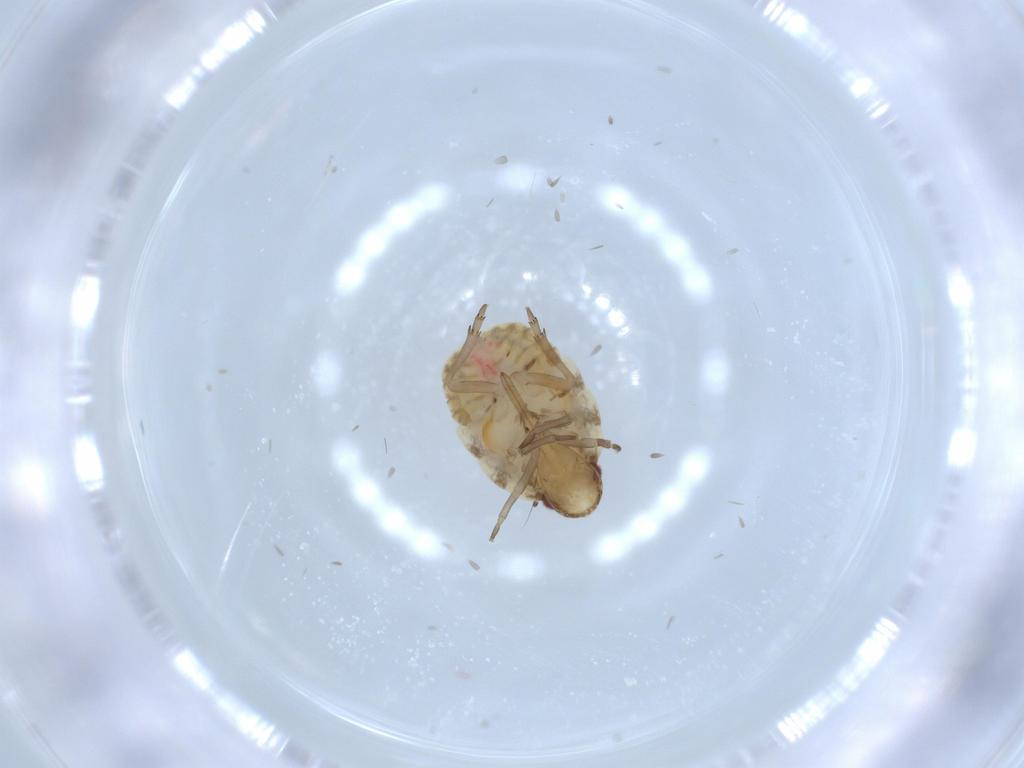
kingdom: Animalia
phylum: Arthropoda
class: Insecta
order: Hemiptera
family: Flatidae
